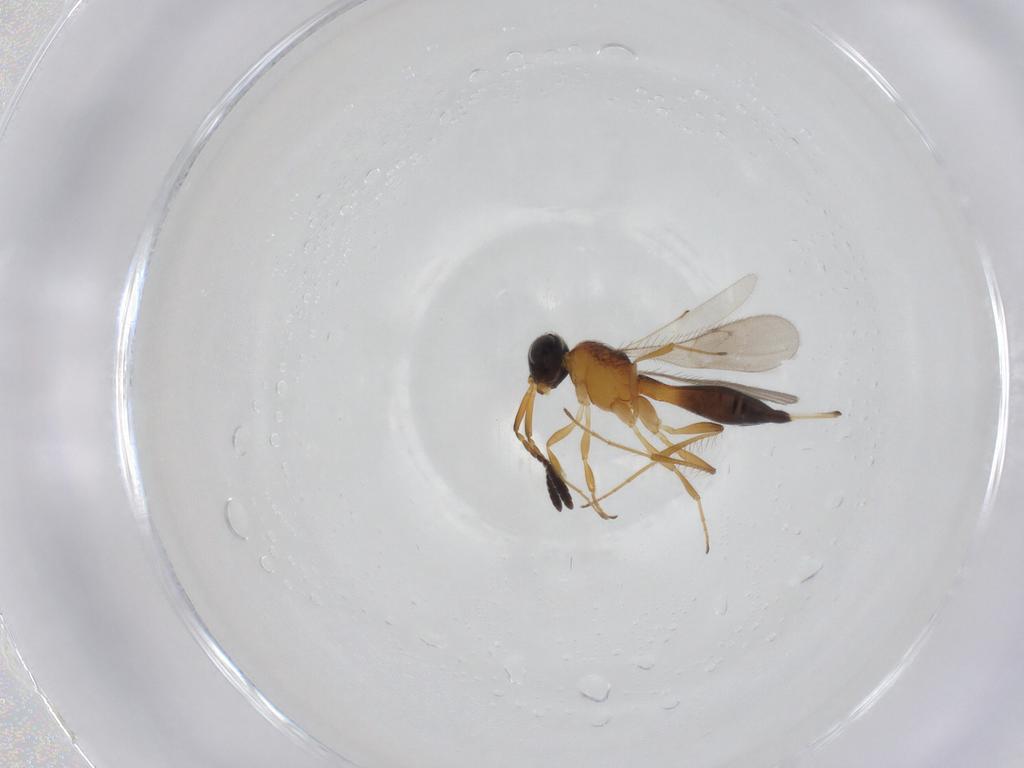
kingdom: Animalia
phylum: Arthropoda
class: Insecta
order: Hymenoptera
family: Scelionidae
